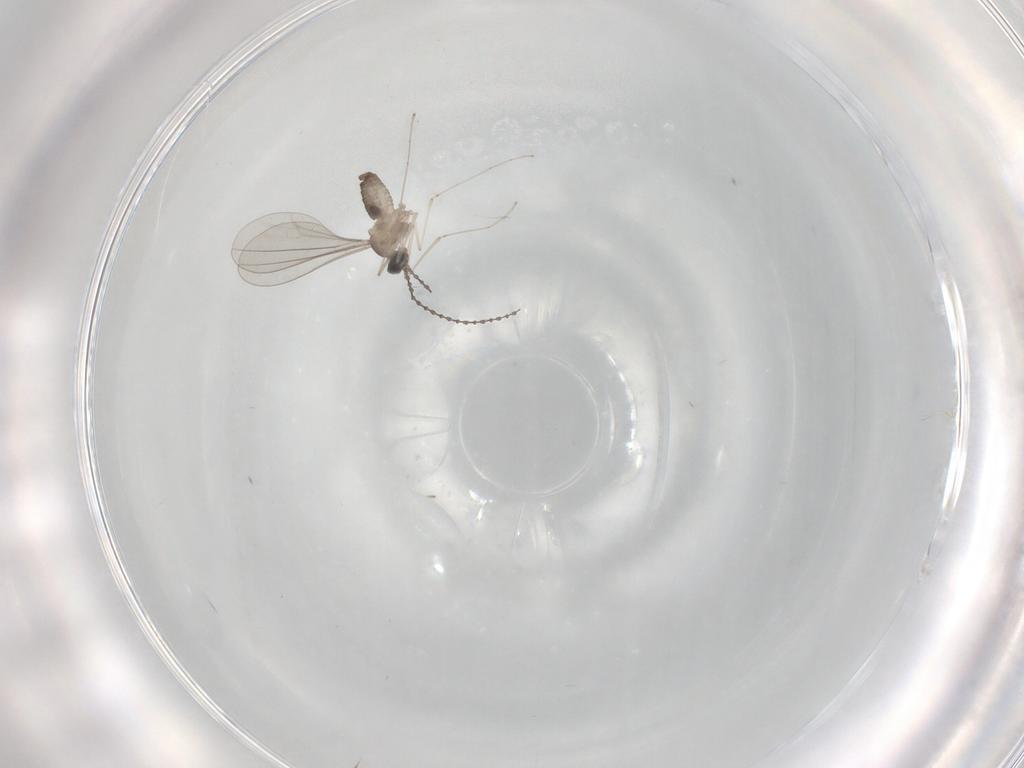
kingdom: Animalia
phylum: Arthropoda
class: Insecta
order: Diptera
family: Cecidomyiidae
